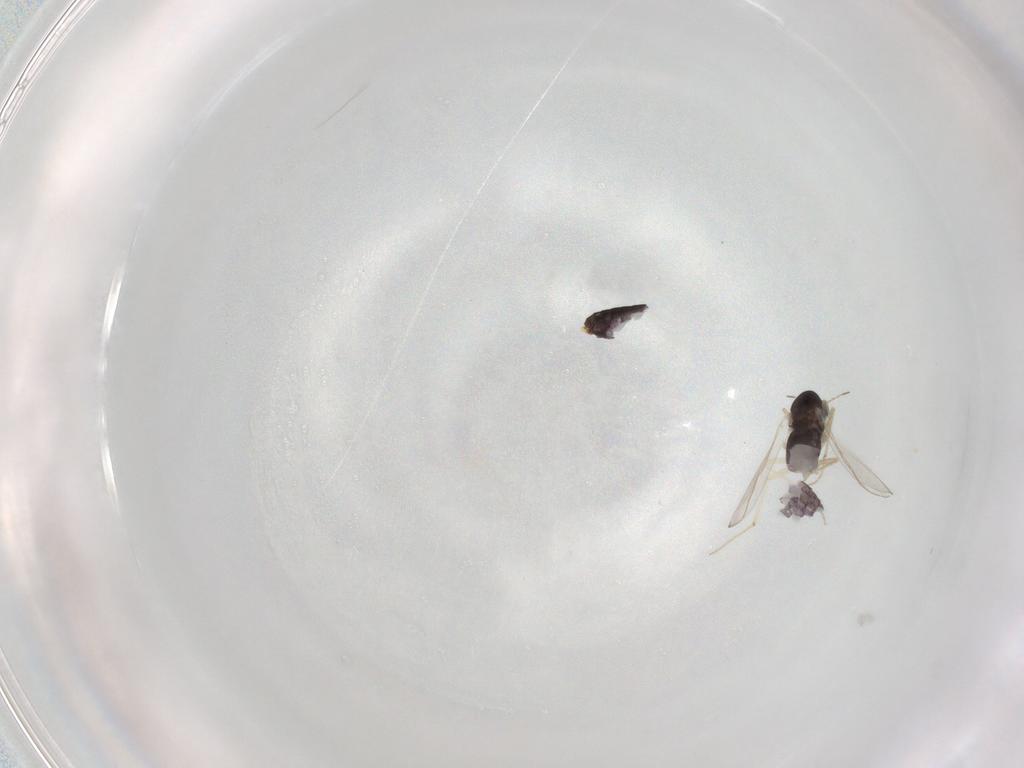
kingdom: Animalia
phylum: Arthropoda
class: Insecta
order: Diptera
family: Chironomidae
